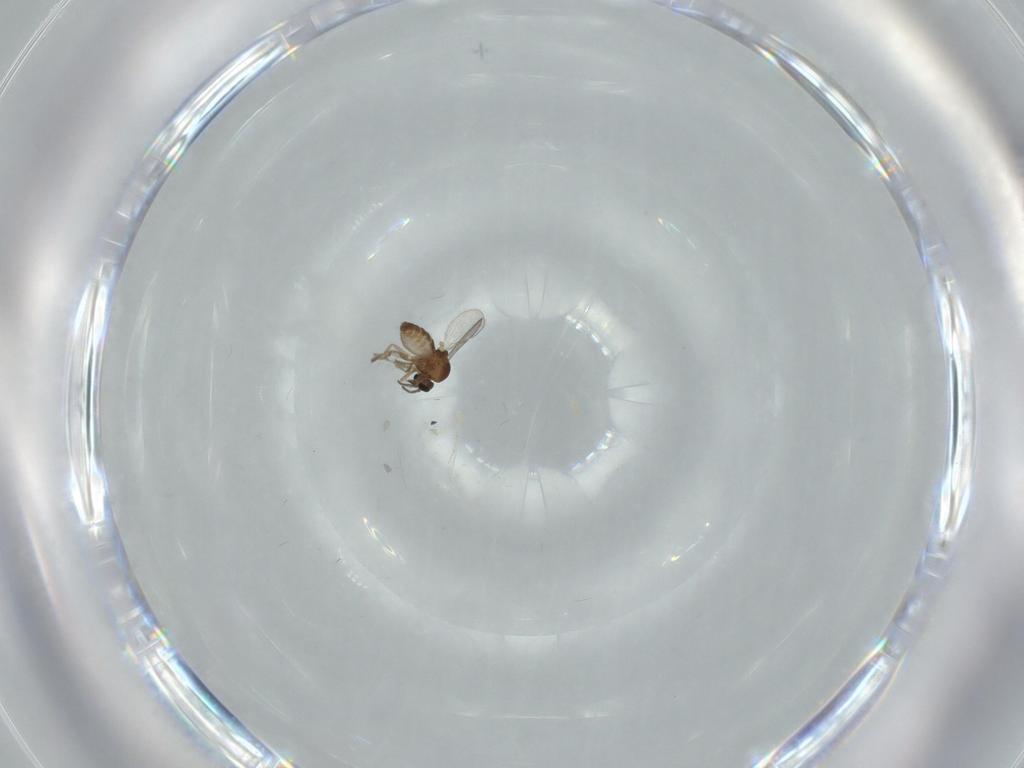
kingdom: Animalia
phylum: Arthropoda
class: Insecta
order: Diptera
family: Ceratopogonidae
